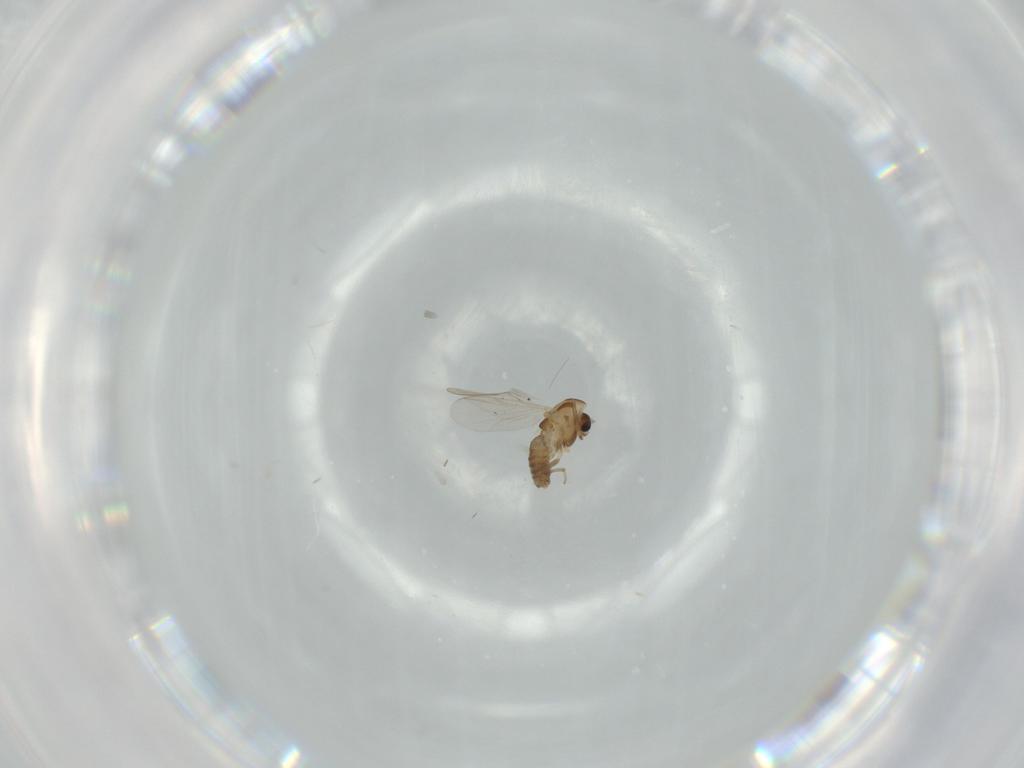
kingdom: Animalia
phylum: Arthropoda
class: Insecta
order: Diptera
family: Chironomidae
